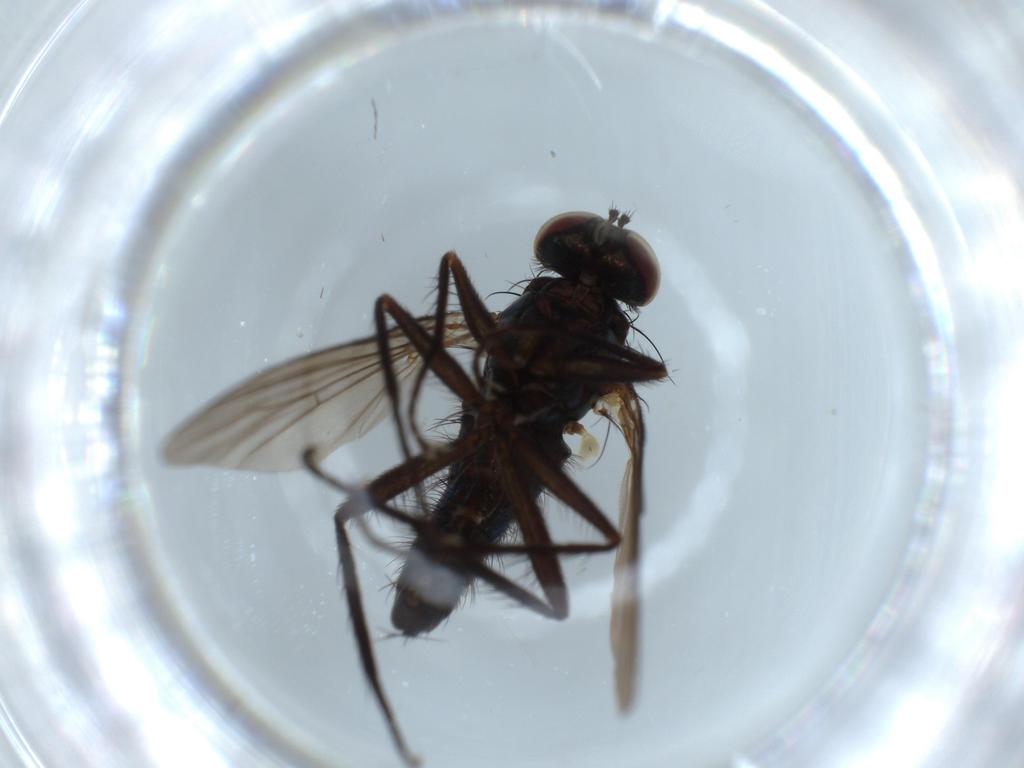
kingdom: Animalia
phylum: Arthropoda
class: Insecta
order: Diptera
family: Dolichopodidae
